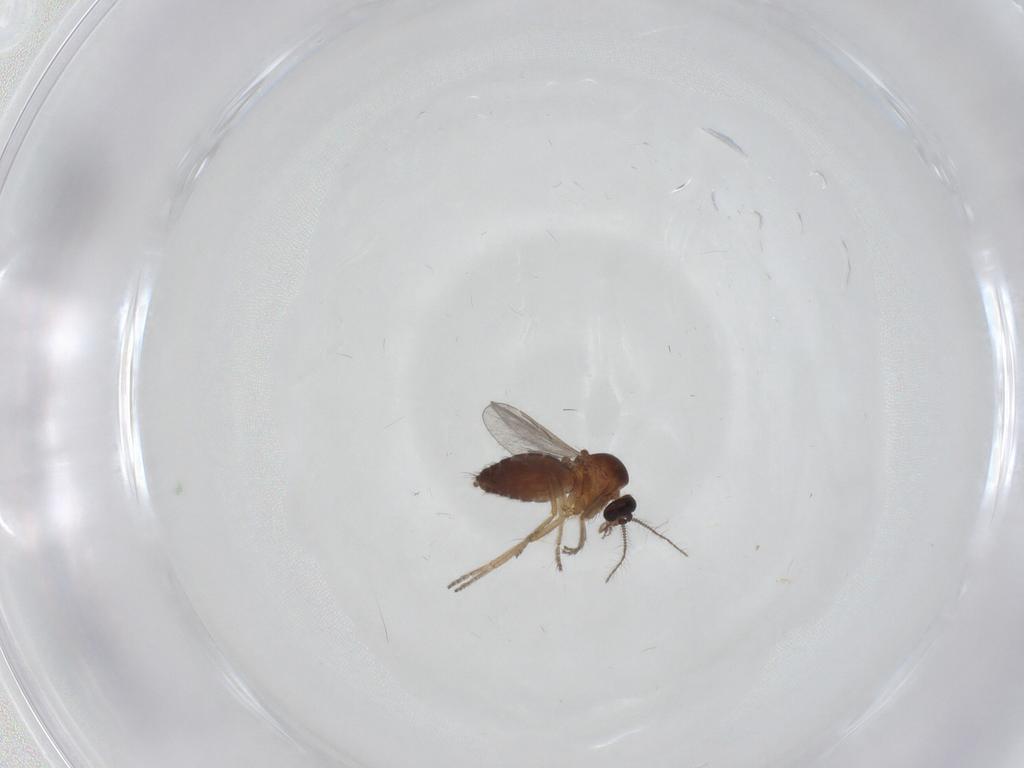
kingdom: Animalia
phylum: Arthropoda
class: Insecta
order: Diptera
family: Ceratopogonidae
